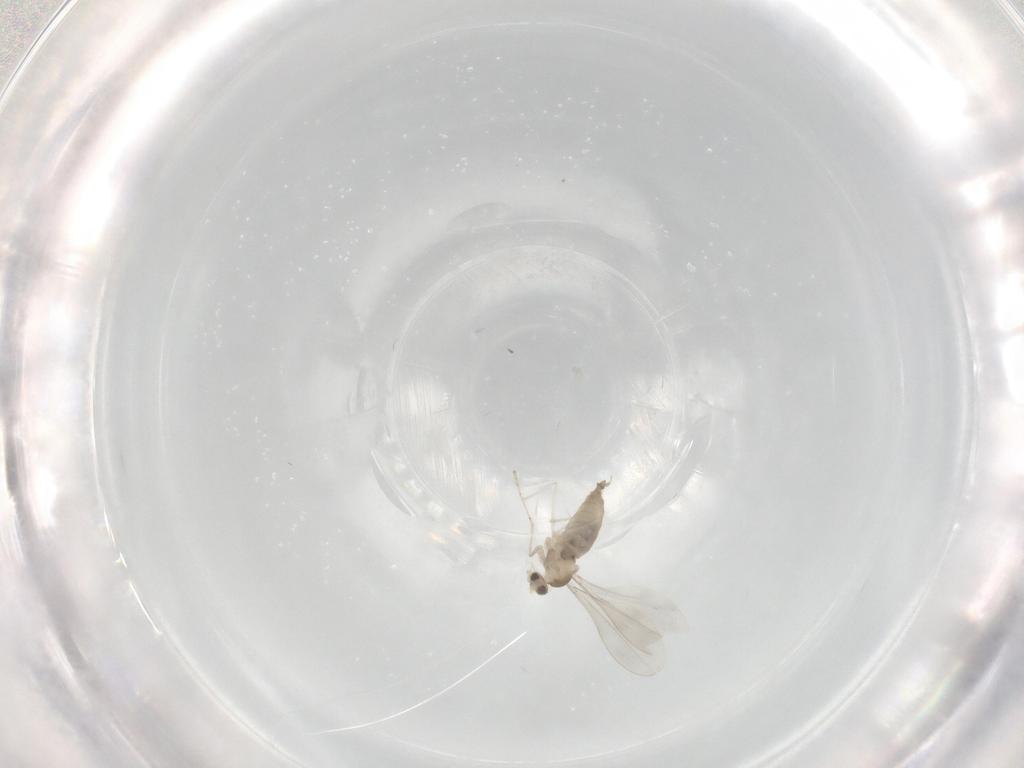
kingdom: Animalia
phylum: Arthropoda
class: Insecta
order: Diptera
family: Cecidomyiidae
